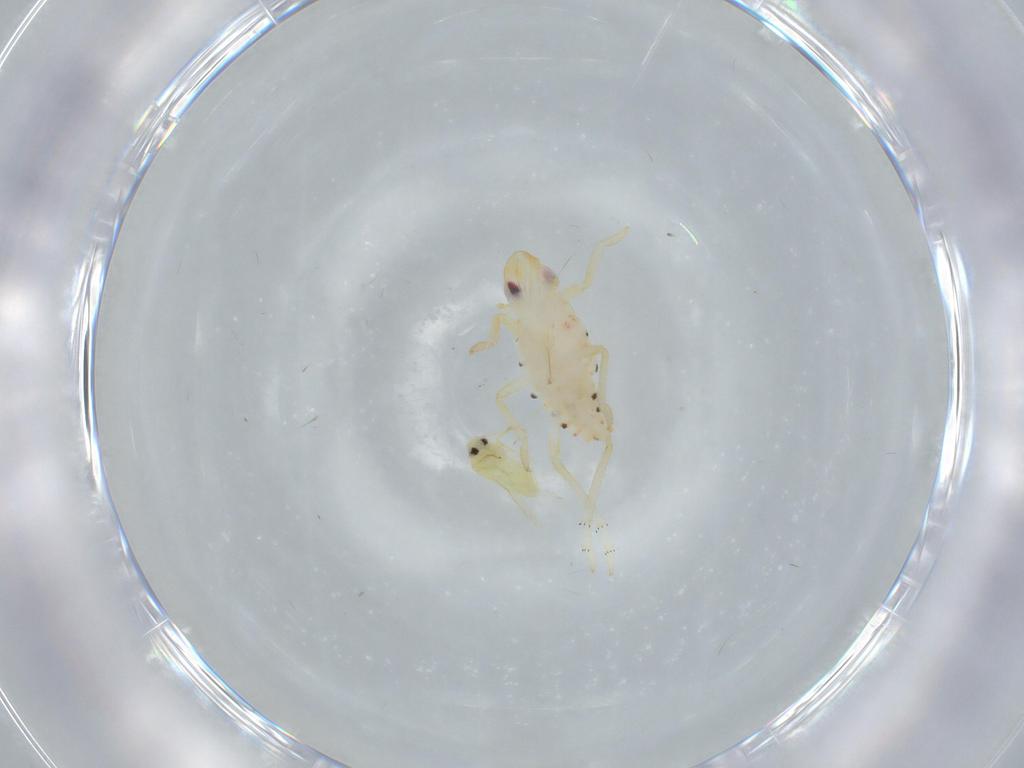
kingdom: Animalia
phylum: Arthropoda
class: Insecta
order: Hemiptera
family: Tropiduchidae
